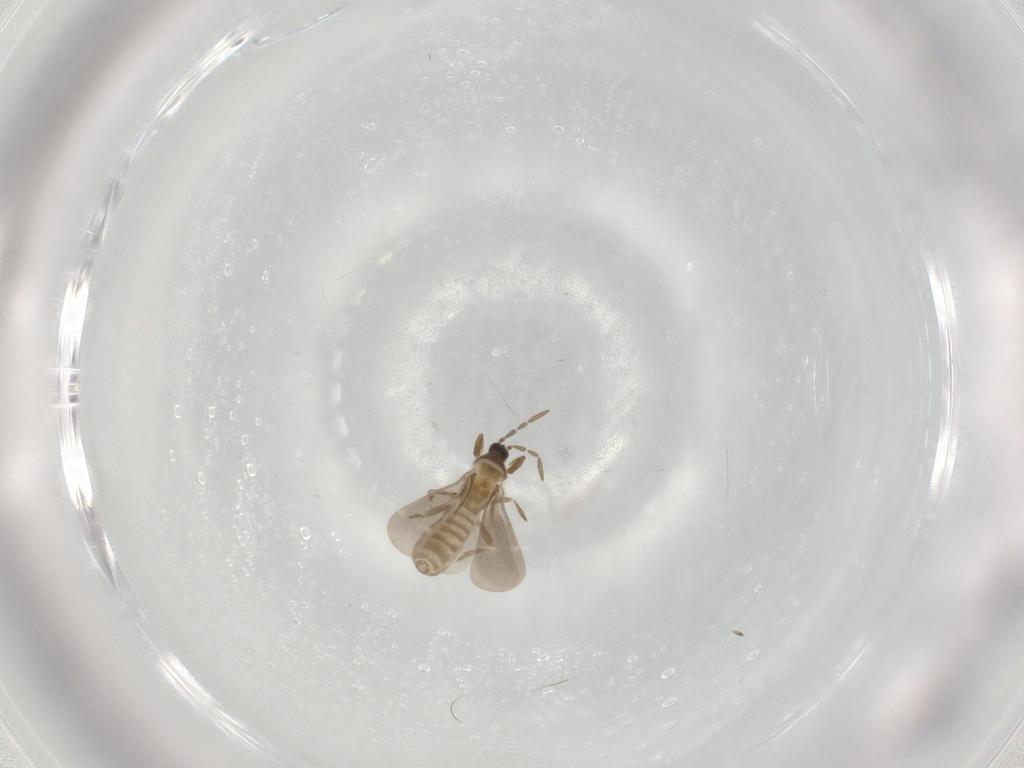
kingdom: Animalia
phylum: Arthropoda
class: Insecta
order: Hemiptera
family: Enicocephalidae
